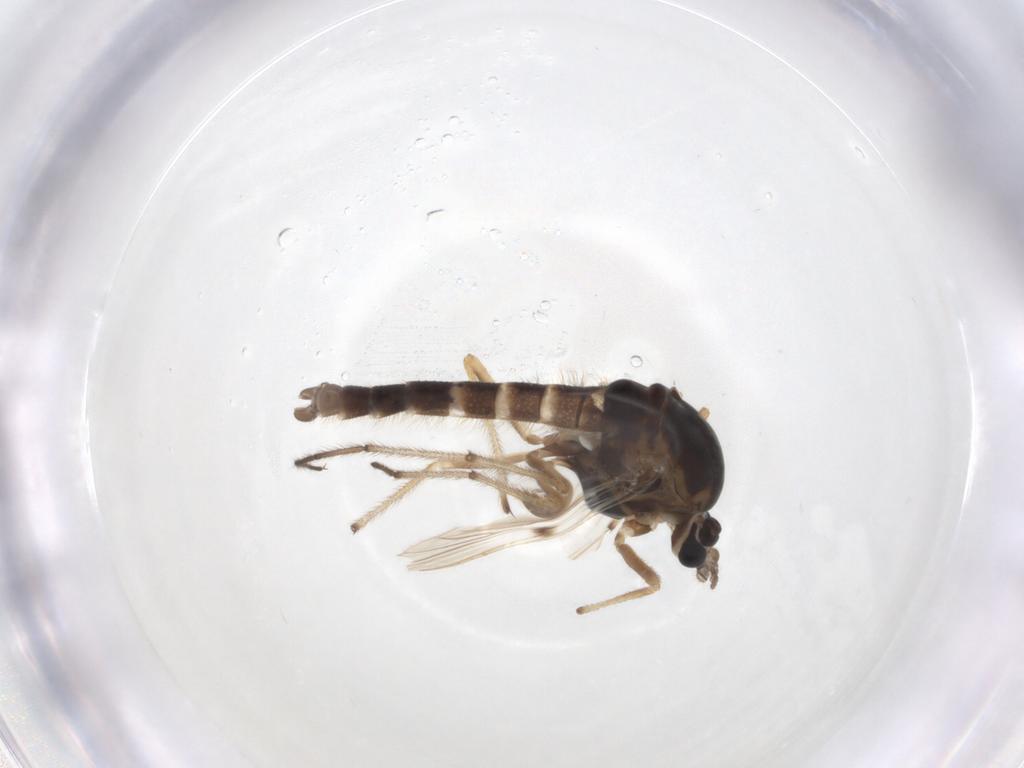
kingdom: Animalia
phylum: Arthropoda
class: Insecta
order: Diptera
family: Chironomidae
